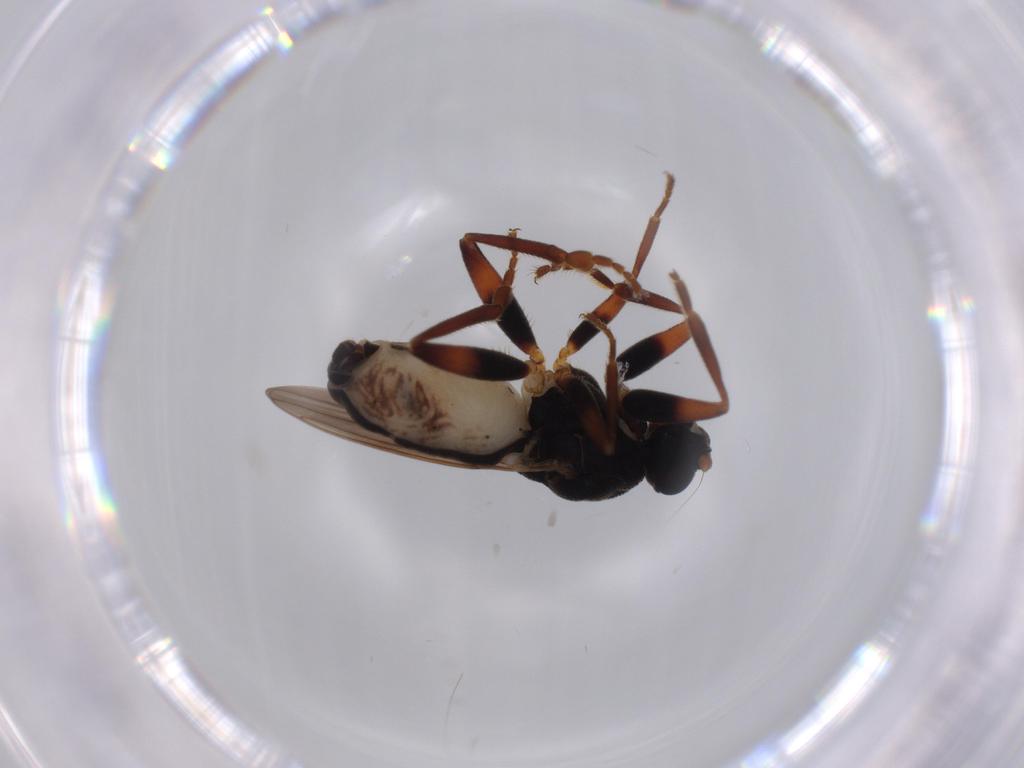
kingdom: Animalia
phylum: Arthropoda
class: Insecta
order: Diptera
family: Sphaeroceridae
